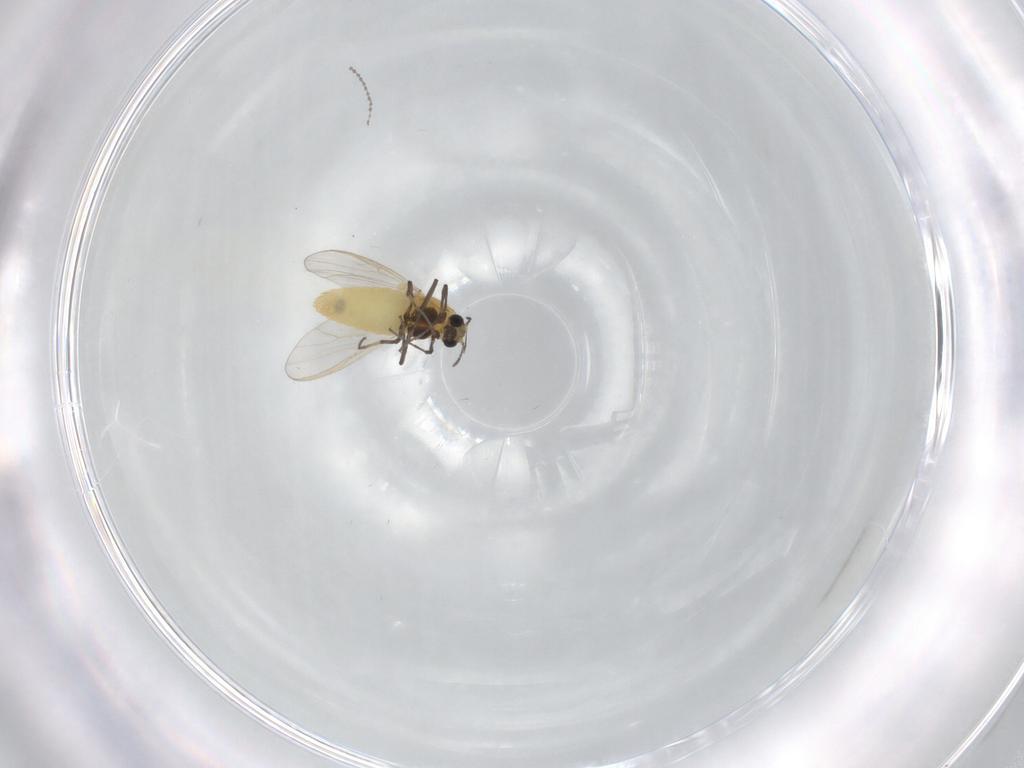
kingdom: Animalia
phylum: Arthropoda
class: Insecta
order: Diptera
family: Chironomidae
